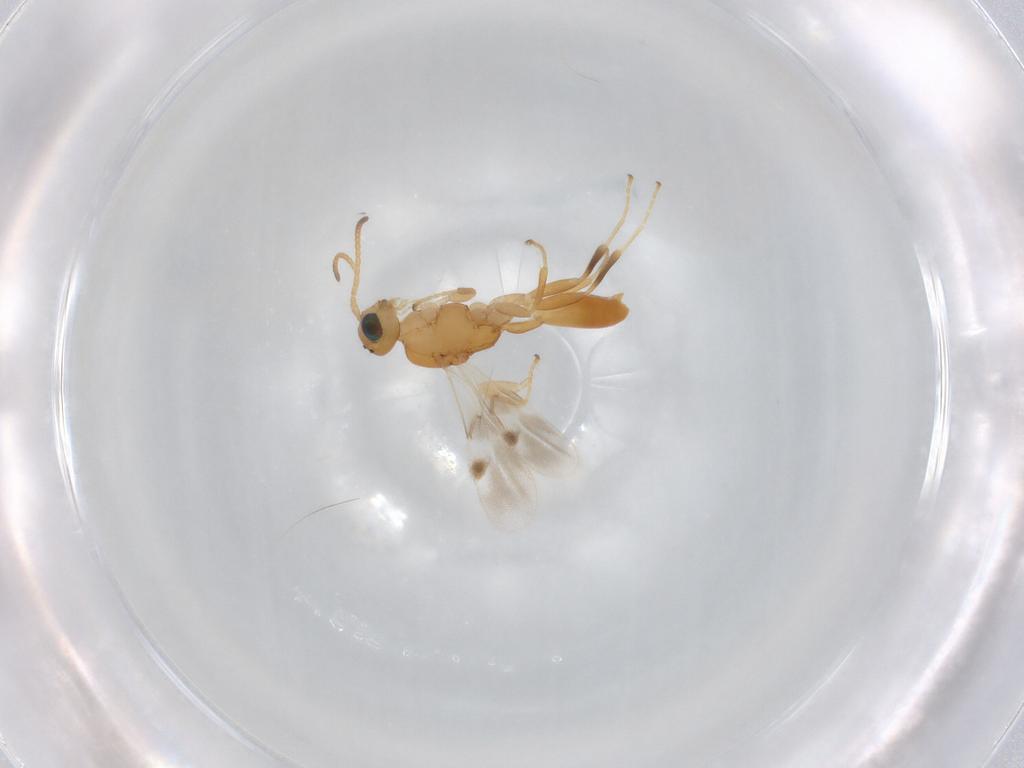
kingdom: Animalia
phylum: Arthropoda
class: Insecta
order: Hymenoptera
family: Braconidae
